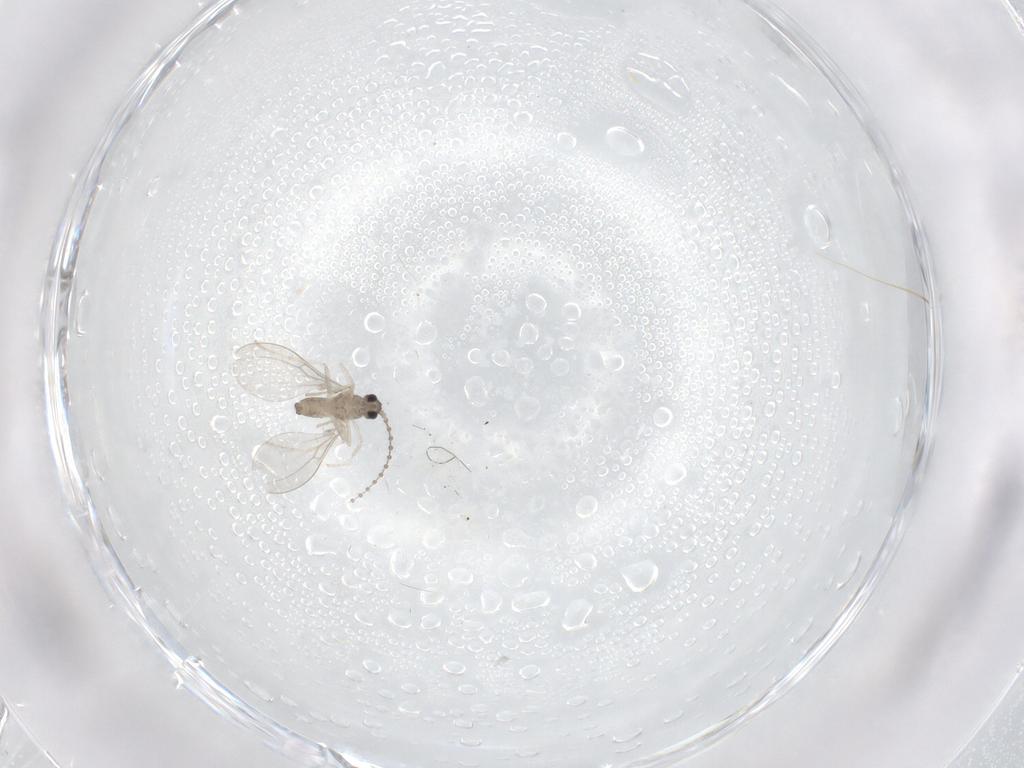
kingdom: Animalia
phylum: Arthropoda
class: Insecta
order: Diptera
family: Cecidomyiidae
